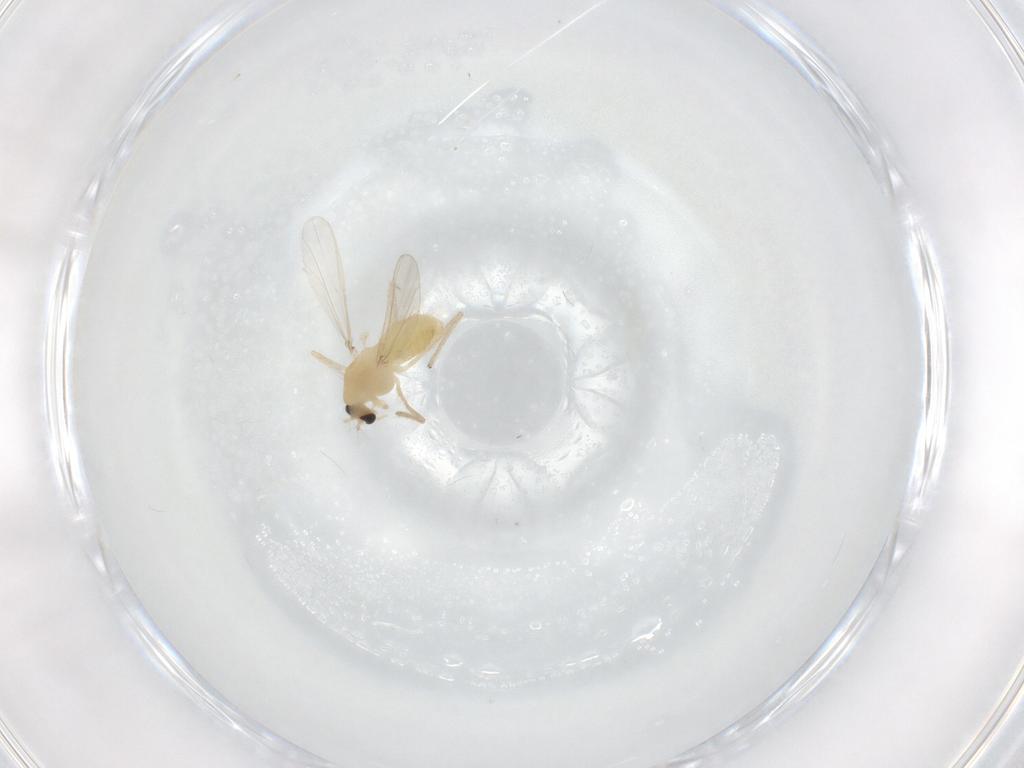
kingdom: Animalia
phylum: Arthropoda
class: Insecta
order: Diptera
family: Chironomidae
